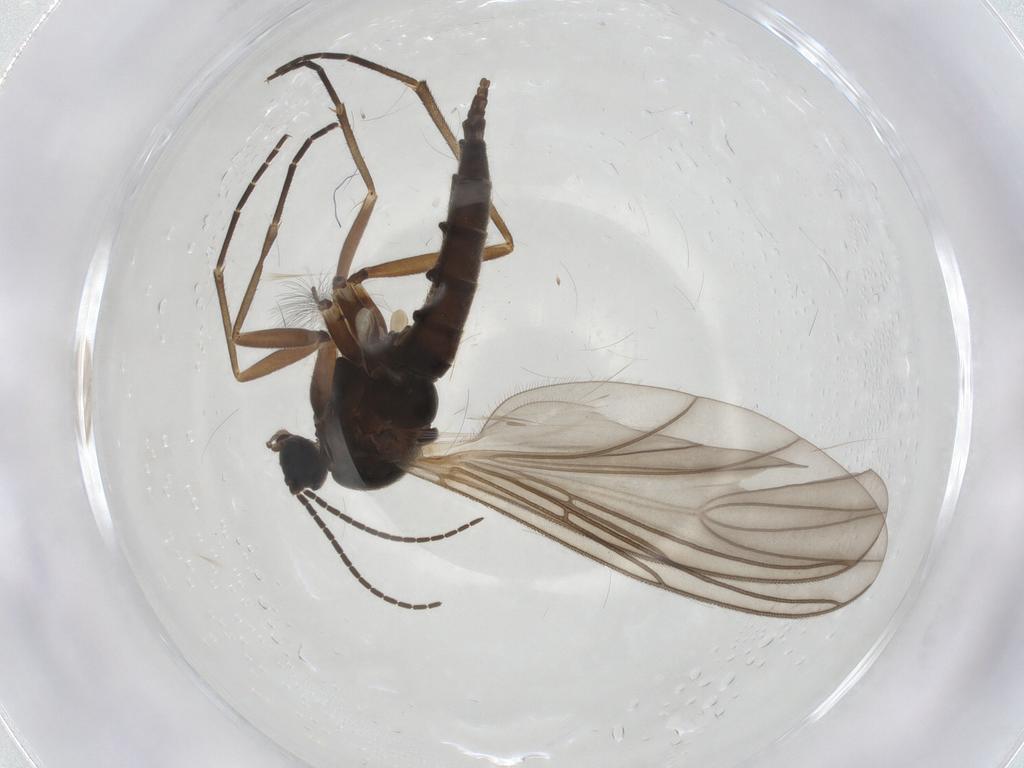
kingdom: Animalia
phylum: Arthropoda
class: Insecta
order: Diptera
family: Sciaridae
